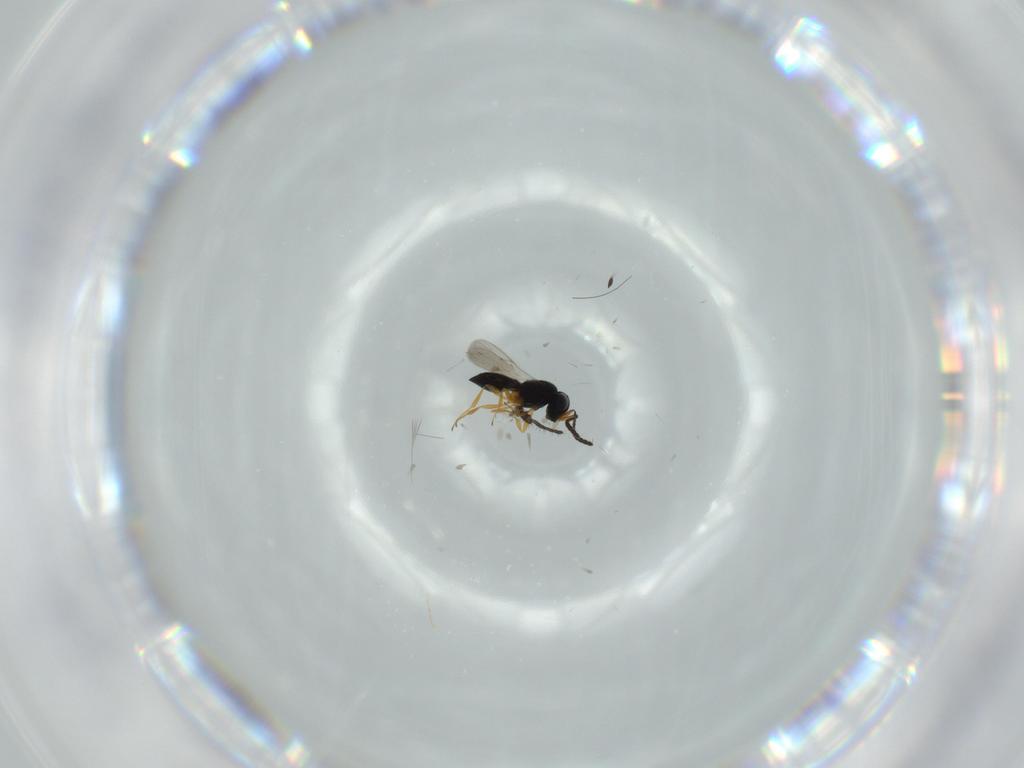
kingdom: Animalia
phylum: Arthropoda
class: Insecta
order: Hymenoptera
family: Scelionidae
